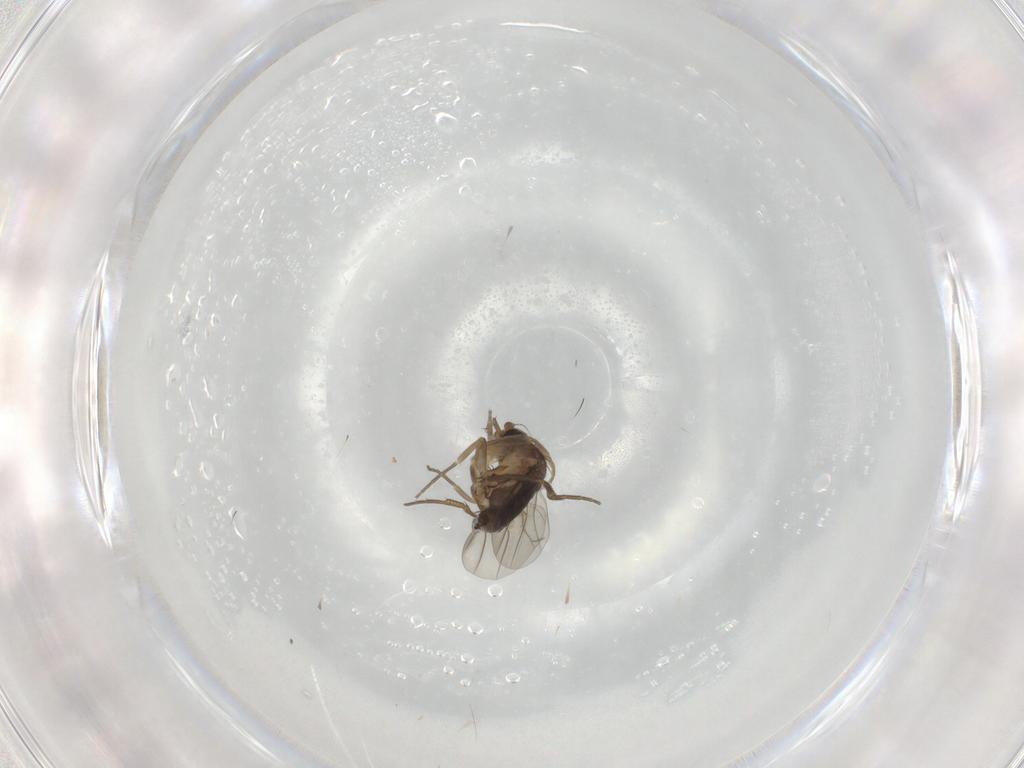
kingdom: Animalia
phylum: Arthropoda
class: Insecta
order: Diptera
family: Phoridae
